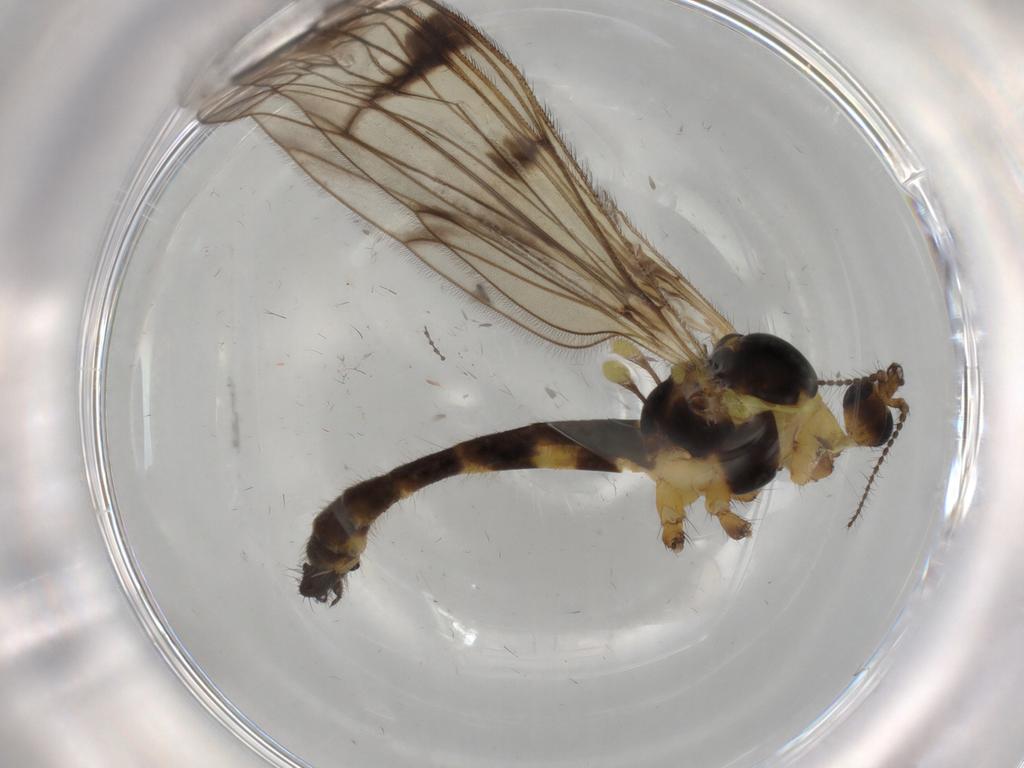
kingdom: Animalia
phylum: Arthropoda
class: Insecta
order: Diptera
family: Limoniidae
